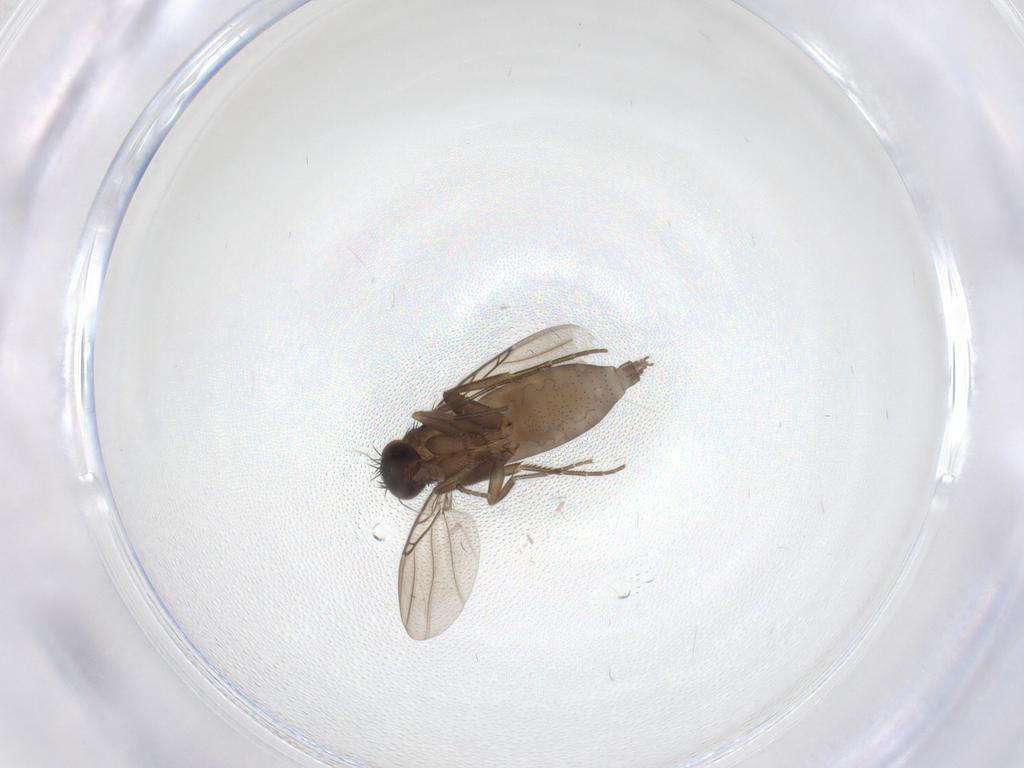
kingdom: Animalia
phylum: Arthropoda
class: Insecta
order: Diptera
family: Phoridae
